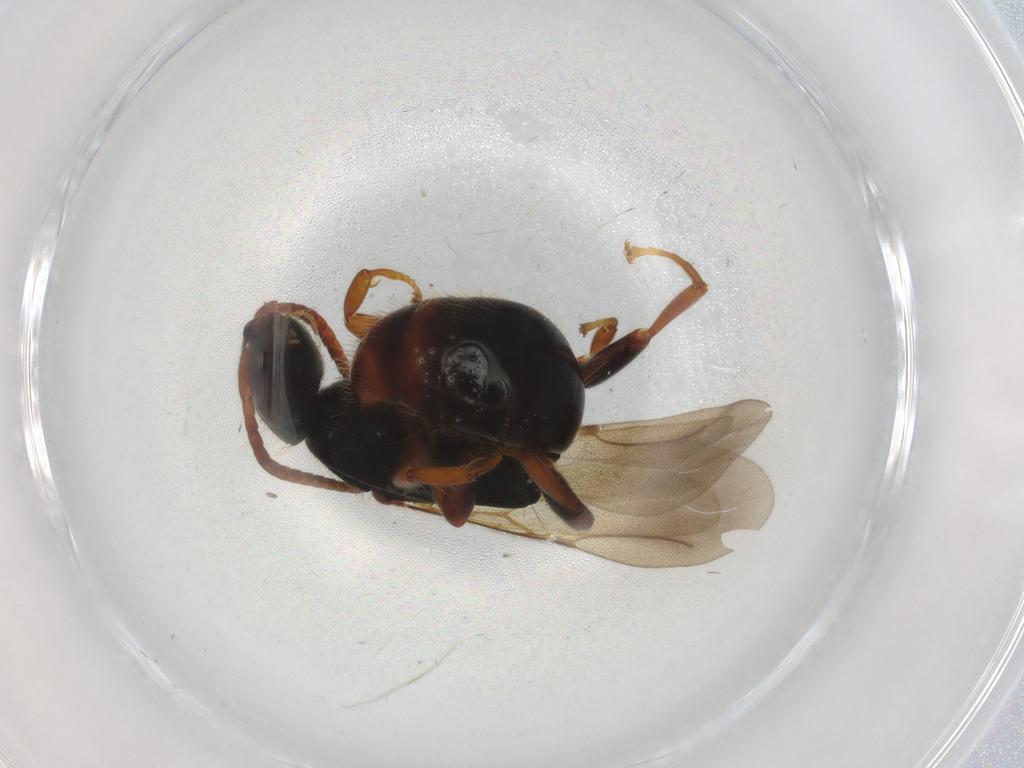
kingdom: Animalia
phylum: Arthropoda
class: Insecta
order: Hymenoptera
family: Bethylidae
